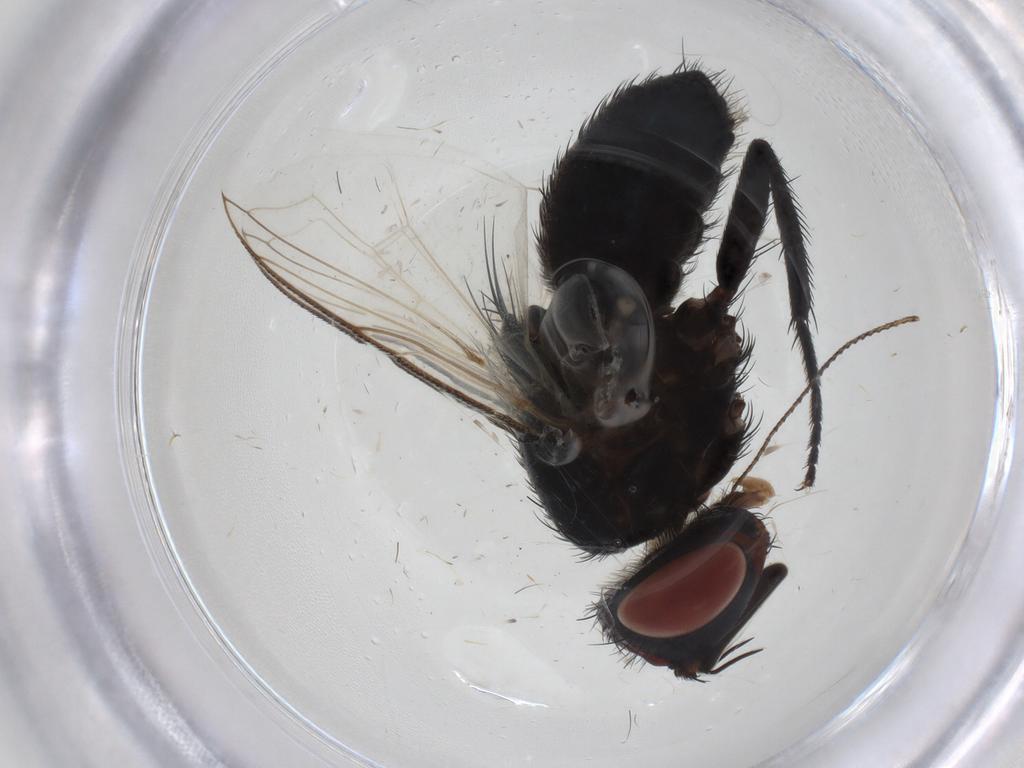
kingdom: Animalia
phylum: Arthropoda
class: Insecta
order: Diptera
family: Tachinidae
